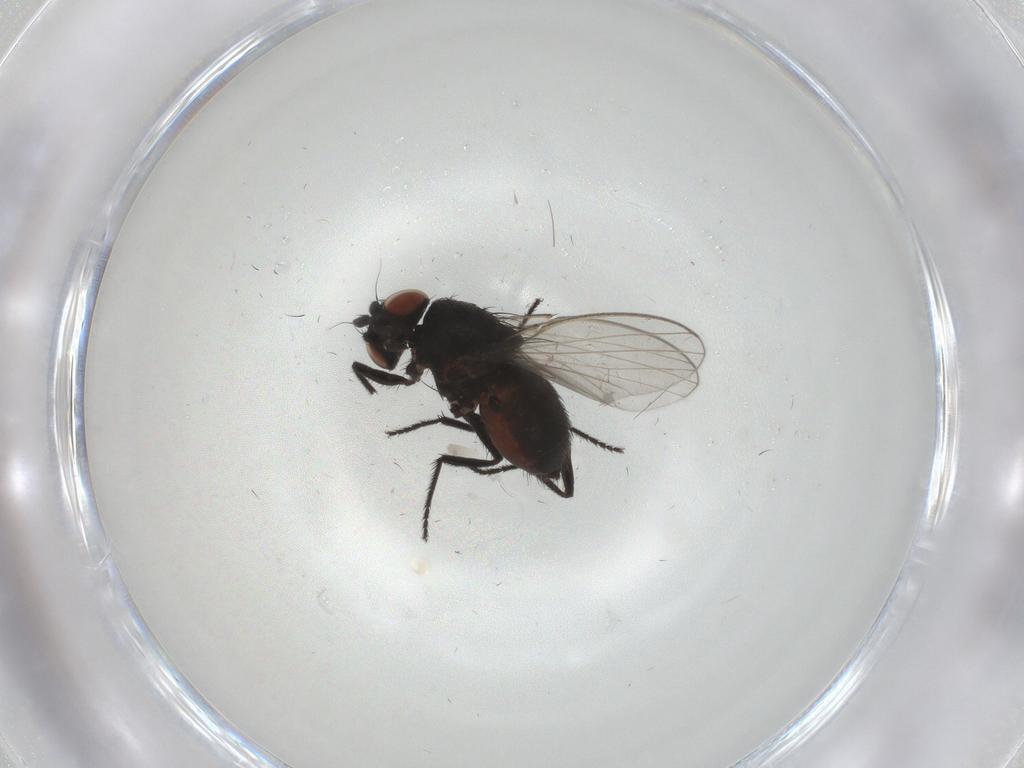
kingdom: Animalia
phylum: Arthropoda
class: Insecta
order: Diptera
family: Milichiidae
